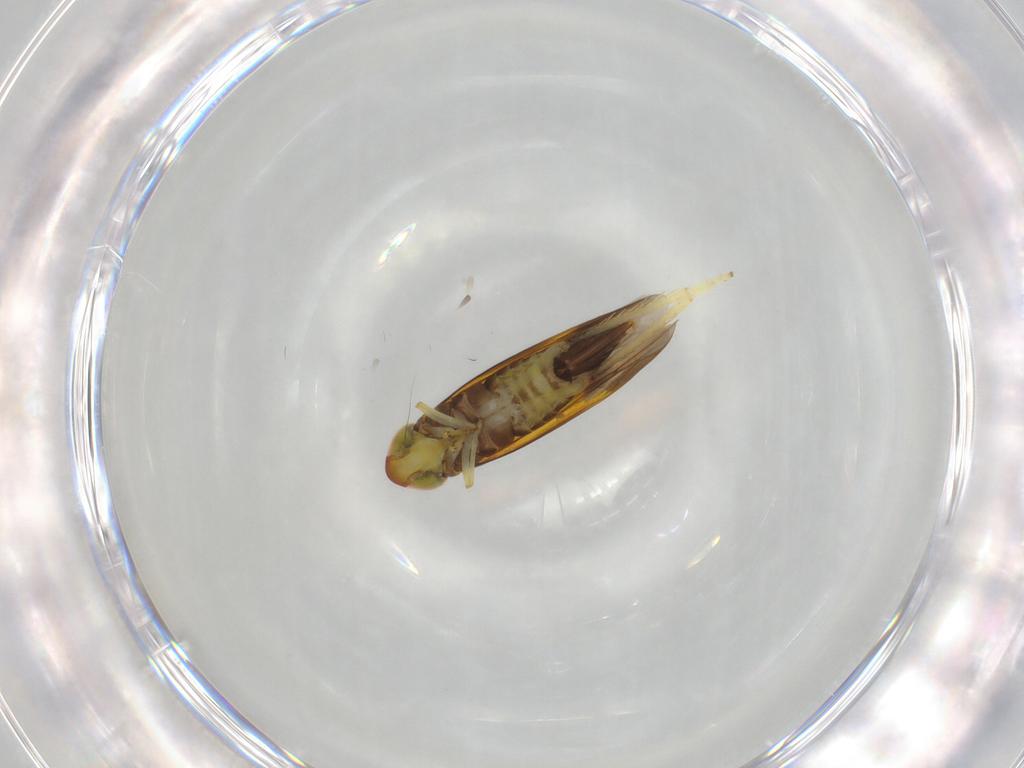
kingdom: Animalia
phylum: Arthropoda
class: Insecta
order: Hemiptera
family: Cicadellidae
